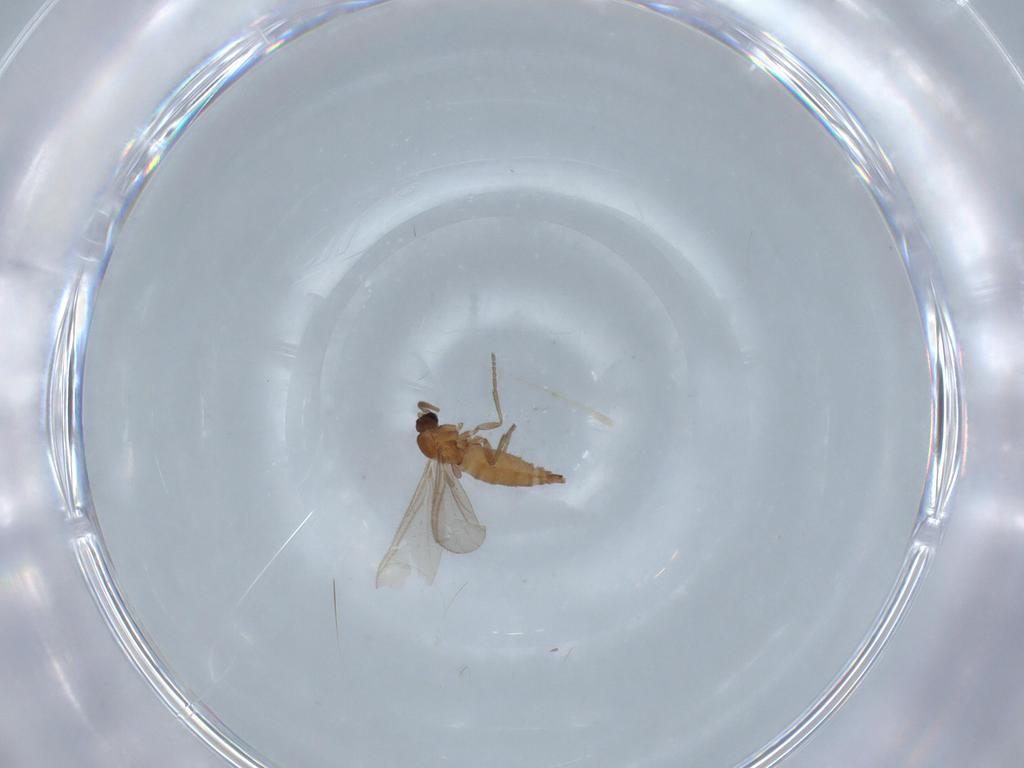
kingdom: Animalia
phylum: Arthropoda
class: Insecta
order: Diptera
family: Sciaridae
